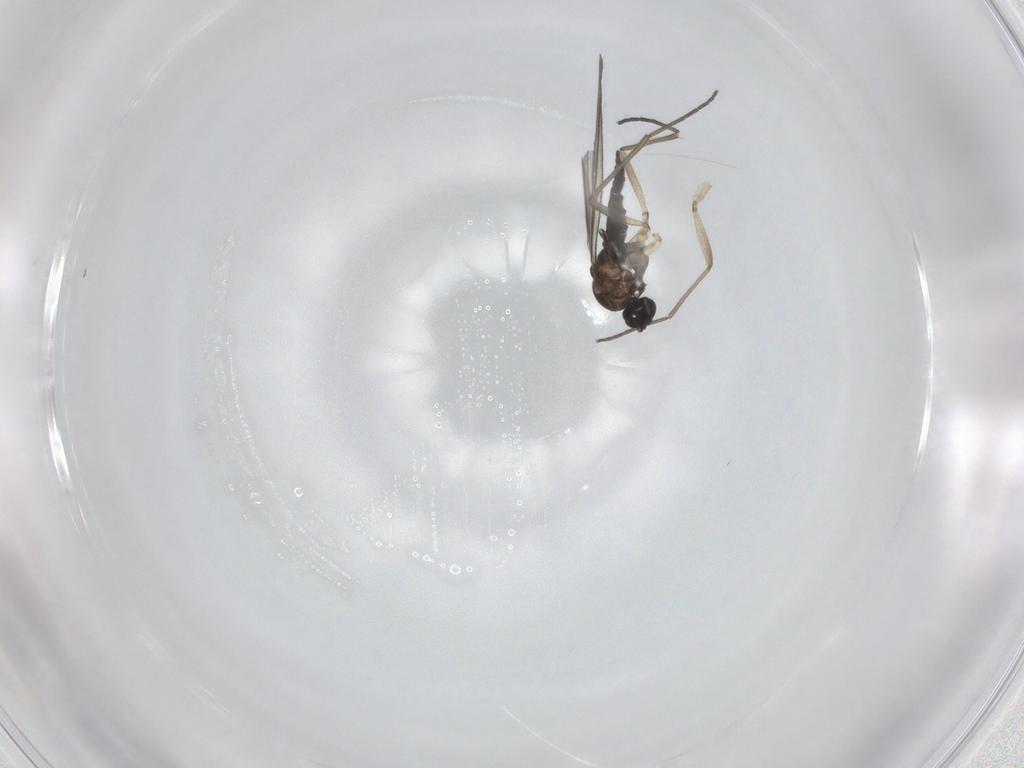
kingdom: Animalia
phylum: Arthropoda
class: Insecta
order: Diptera
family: Sciaridae
